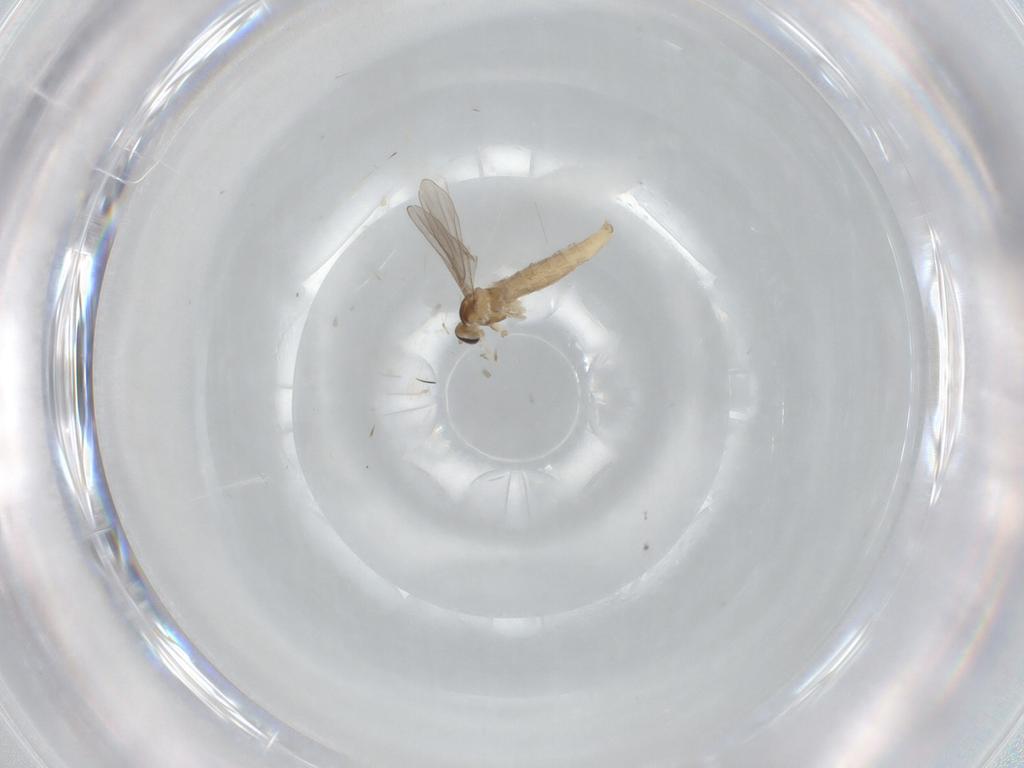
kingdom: Animalia
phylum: Arthropoda
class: Insecta
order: Diptera
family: Cecidomyiidae
